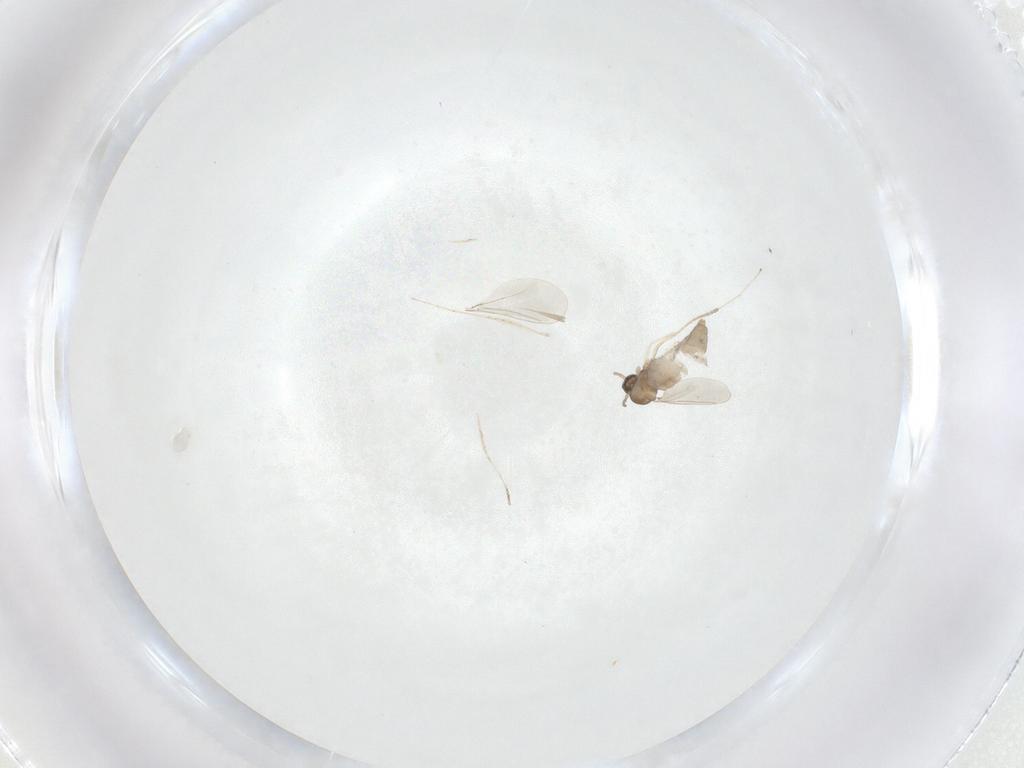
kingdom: Animalia
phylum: Arthropoda
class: Insecta
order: Diptera
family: Cecidomyiidae
